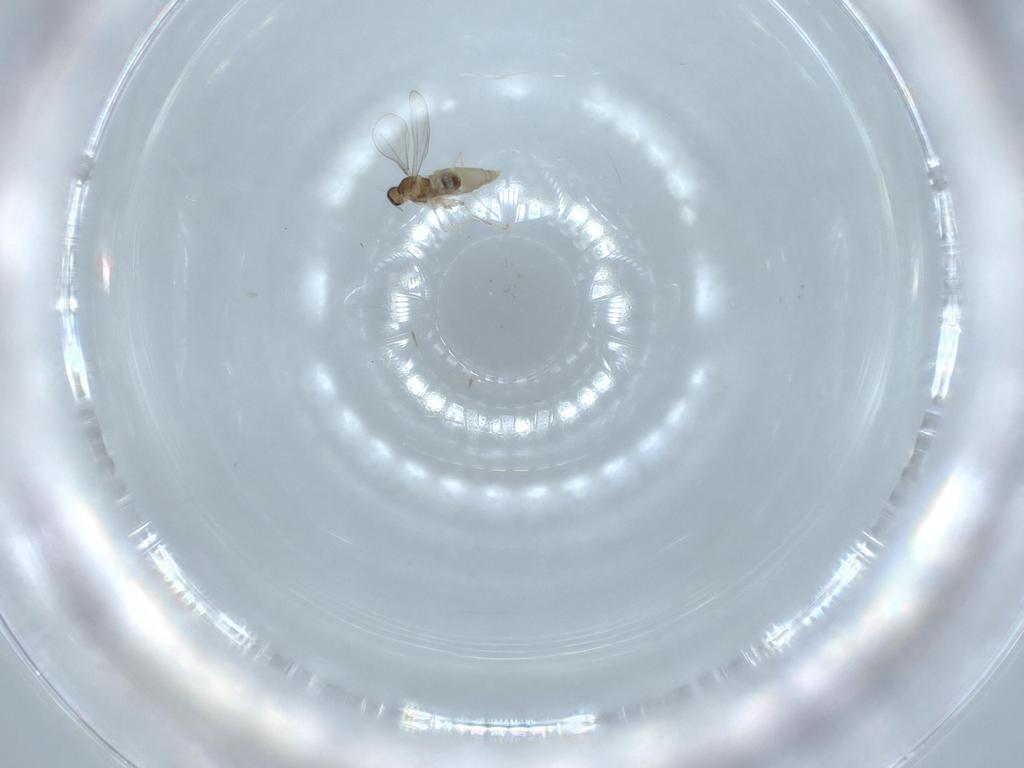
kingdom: Animalia
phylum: Arthropoda
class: Insecta
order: Diptera
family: Cecidomyiidae
